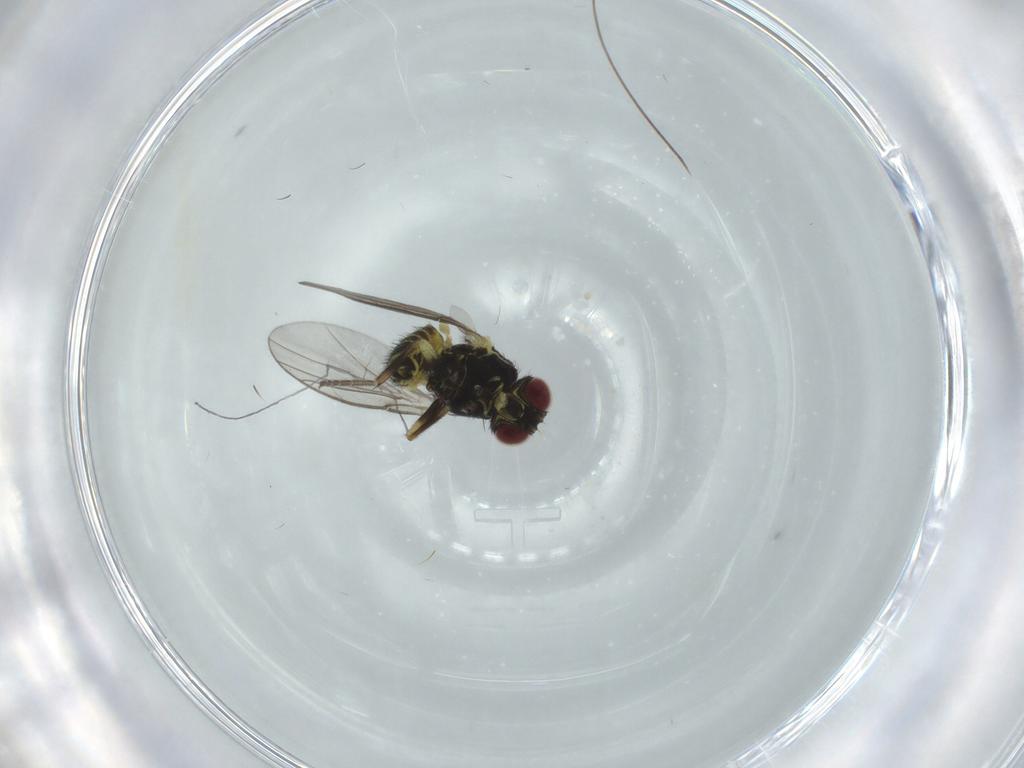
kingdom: Animalia
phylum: Arthropoda
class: Insecta
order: Diptera
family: Agromyzidae
